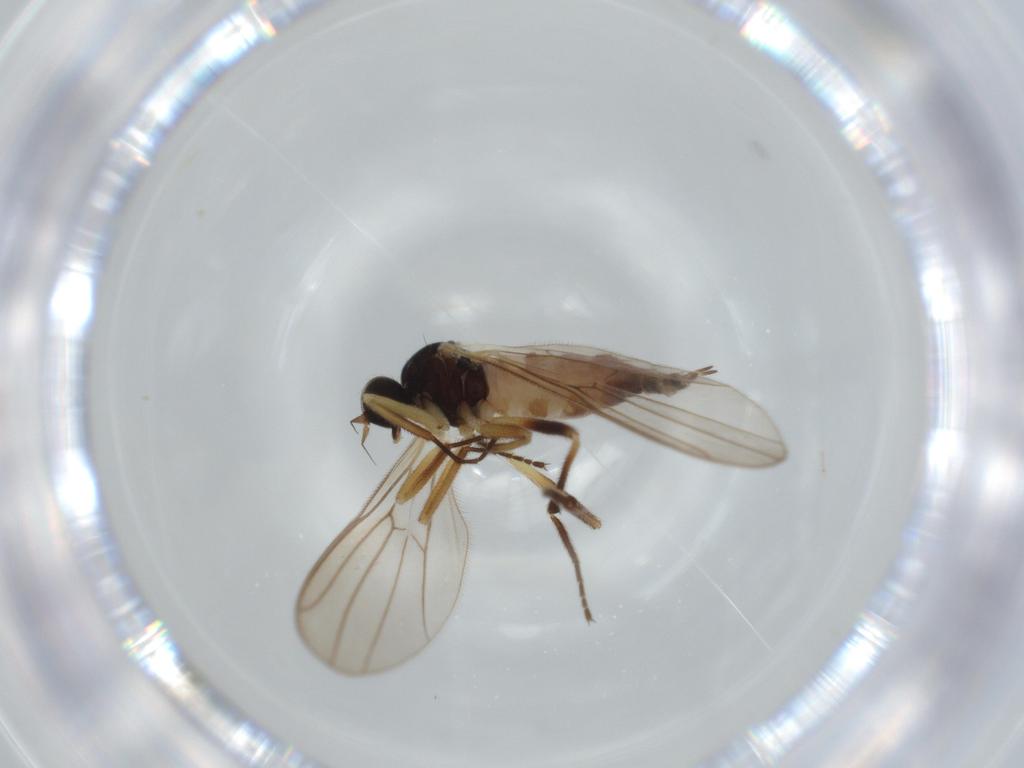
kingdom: Animalia
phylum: Arthropoda
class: Insecta
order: Diptera
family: Cecidomyiidae
